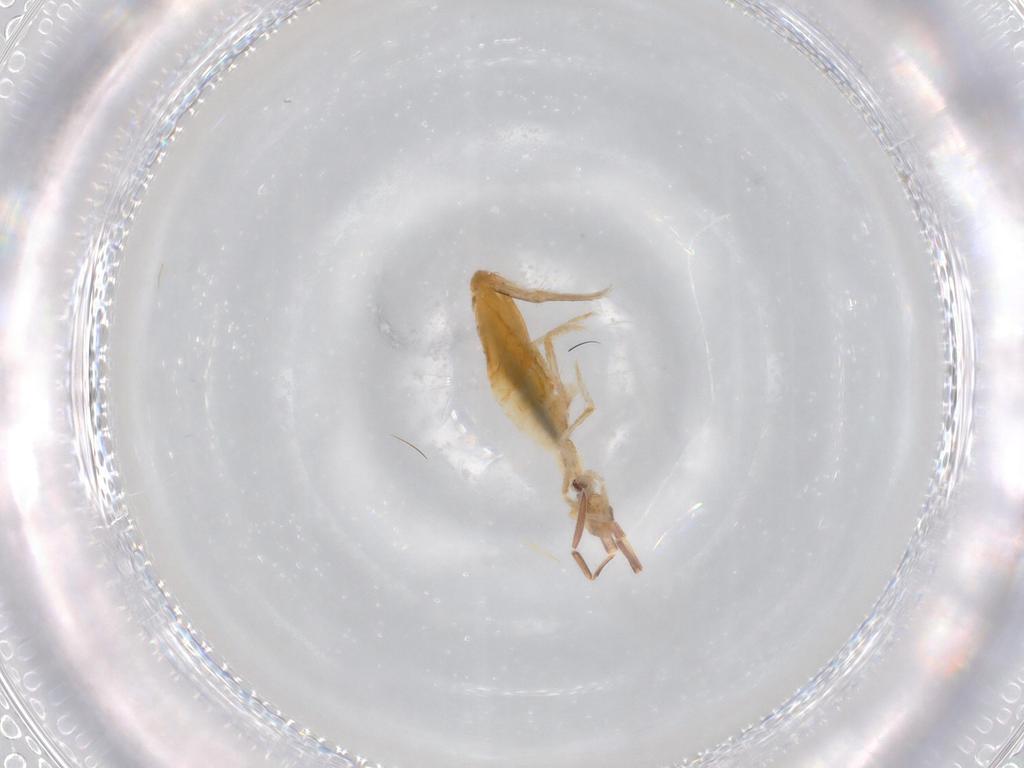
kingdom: Animalia
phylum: Arthropoda
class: Collembola
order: Entomobryomorpha
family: Entomobryidae
